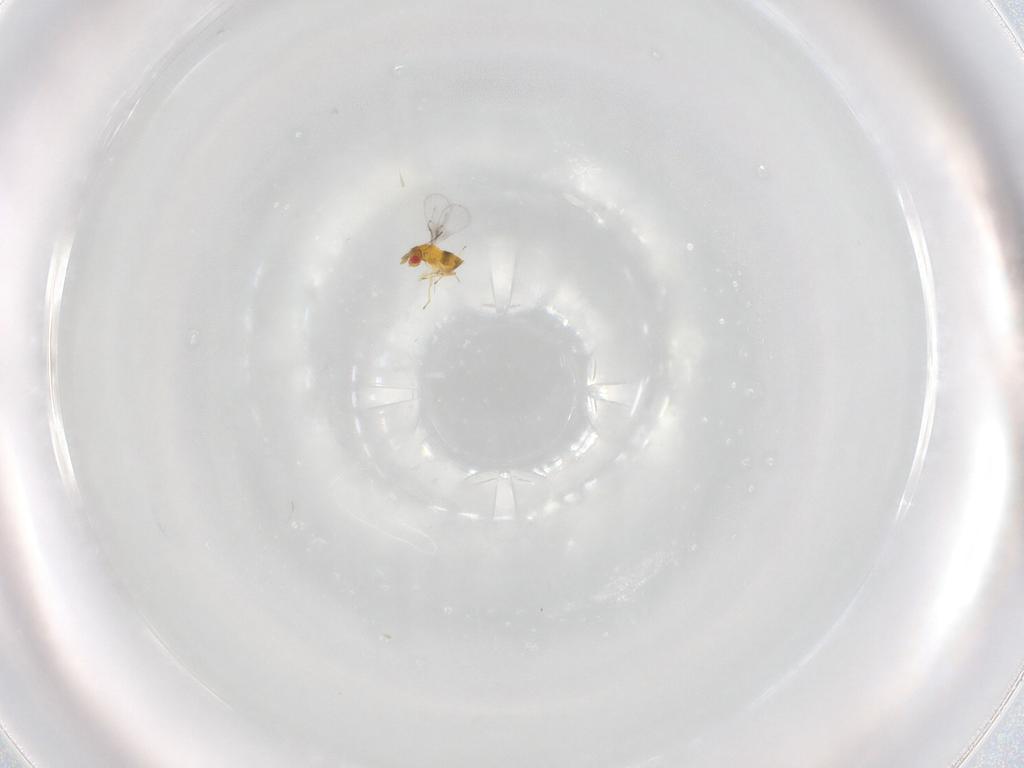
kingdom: Animalia
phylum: Arthropoda
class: Insecta
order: Hymenoptera
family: Trichogrammatidae
